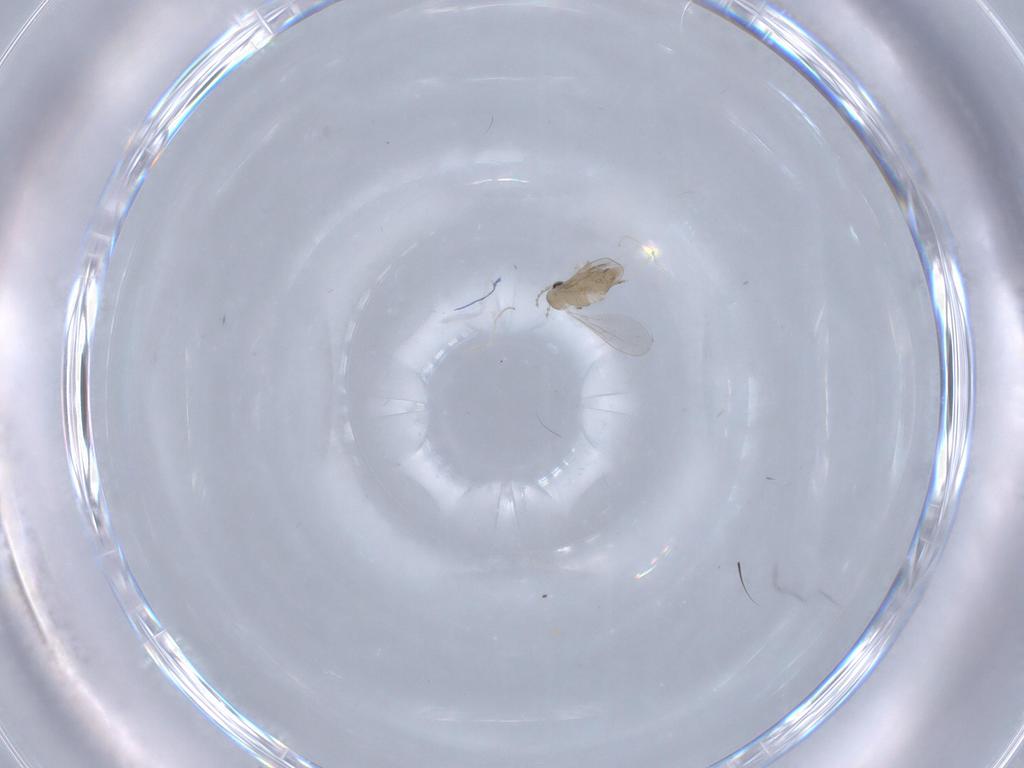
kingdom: Animalia
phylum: Arthropoda
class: Insecta
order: Diptera
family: Cecidomyiidae
